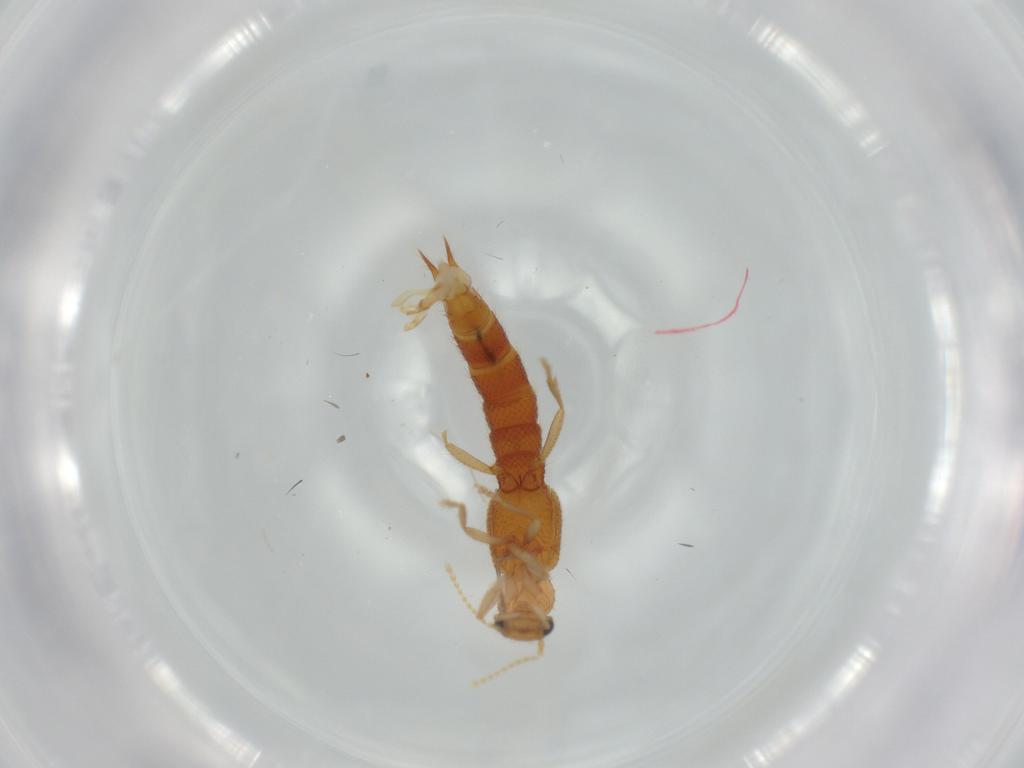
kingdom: Animalia
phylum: Arthropoda
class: Insecta
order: Coleoptera
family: Staphylinidae
